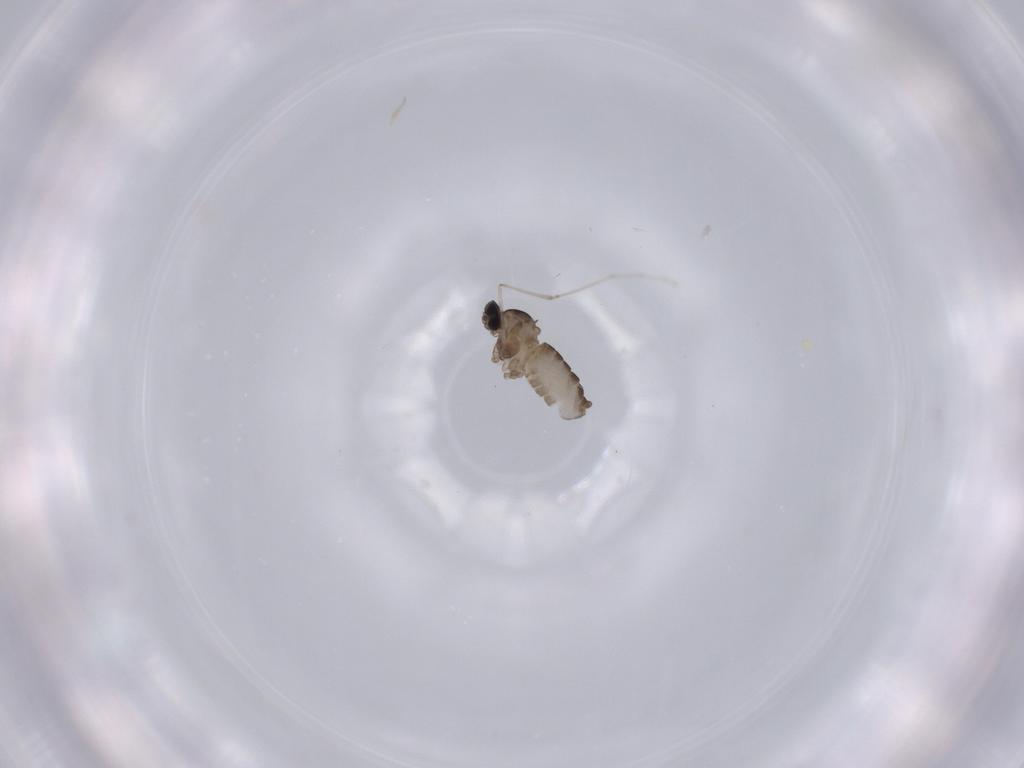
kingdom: Animalia
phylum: Arthropoda
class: Insecta
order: Diptera
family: Cecidomyiidae
